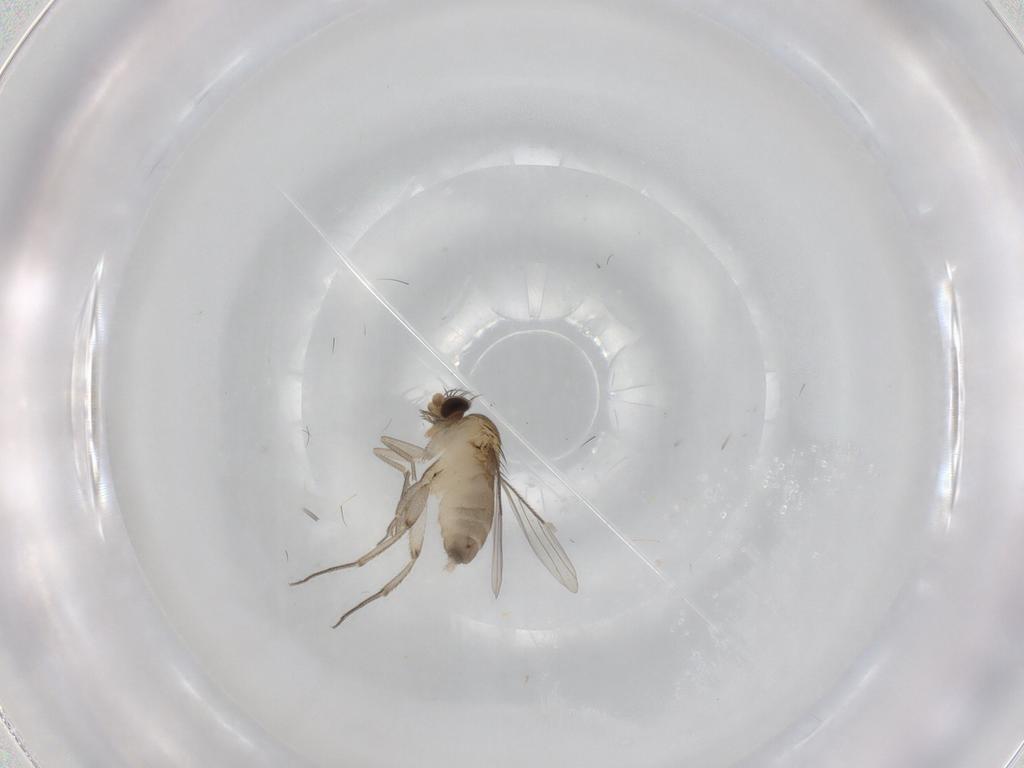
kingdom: Animalia
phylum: Arthropoda
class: Insecta
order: Diptera
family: Phoridae
